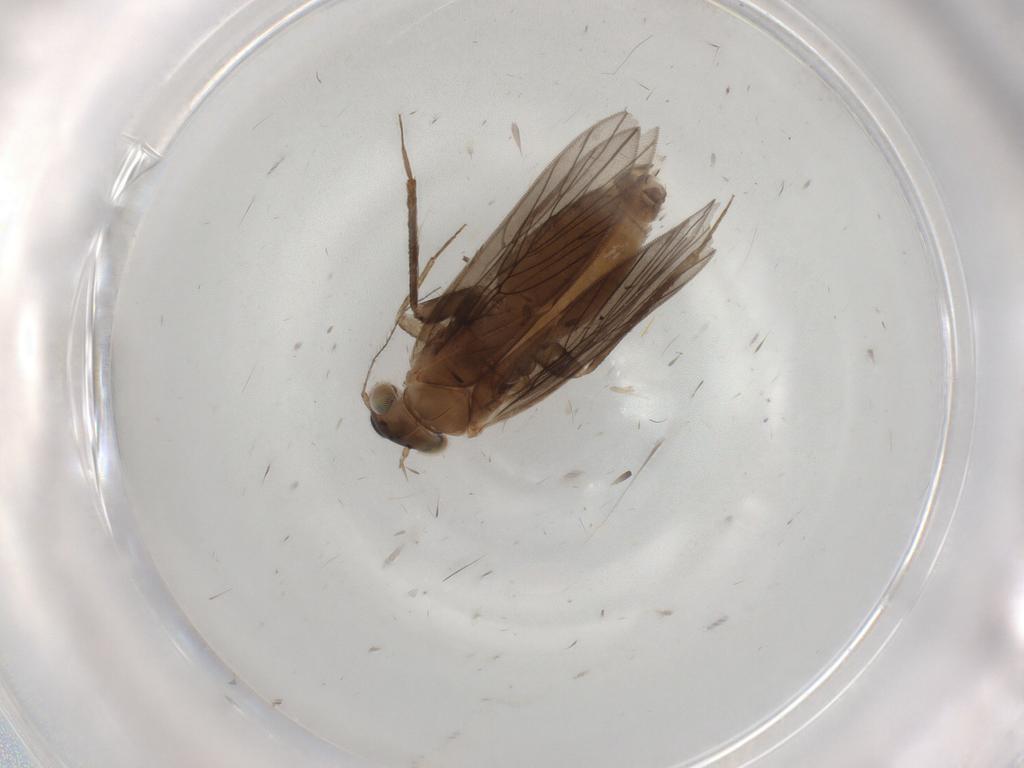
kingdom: Animalia
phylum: Arthropoda
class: Insecta
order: Psocodea
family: Lepidopsocidae
